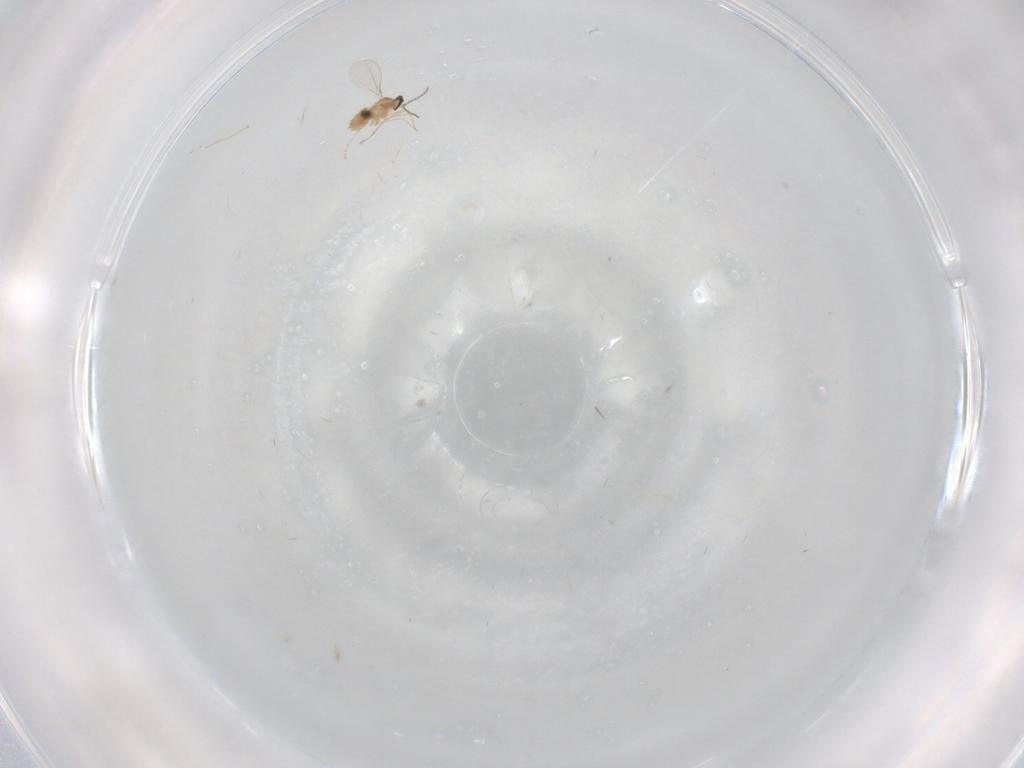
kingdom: Animalia
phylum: Arthropoda
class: Insecta
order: Diptera
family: Cecidomyiidae
